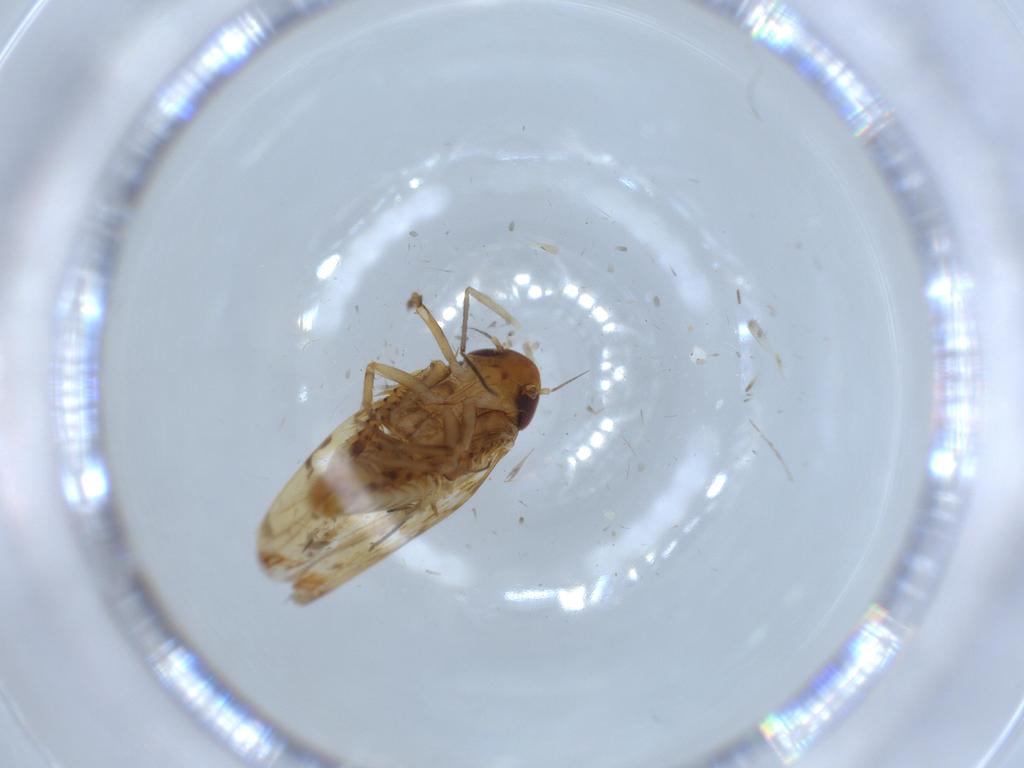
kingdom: Animalia
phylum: Arthropoda
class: Insecta
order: Hemiptera
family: Cicadellidae
